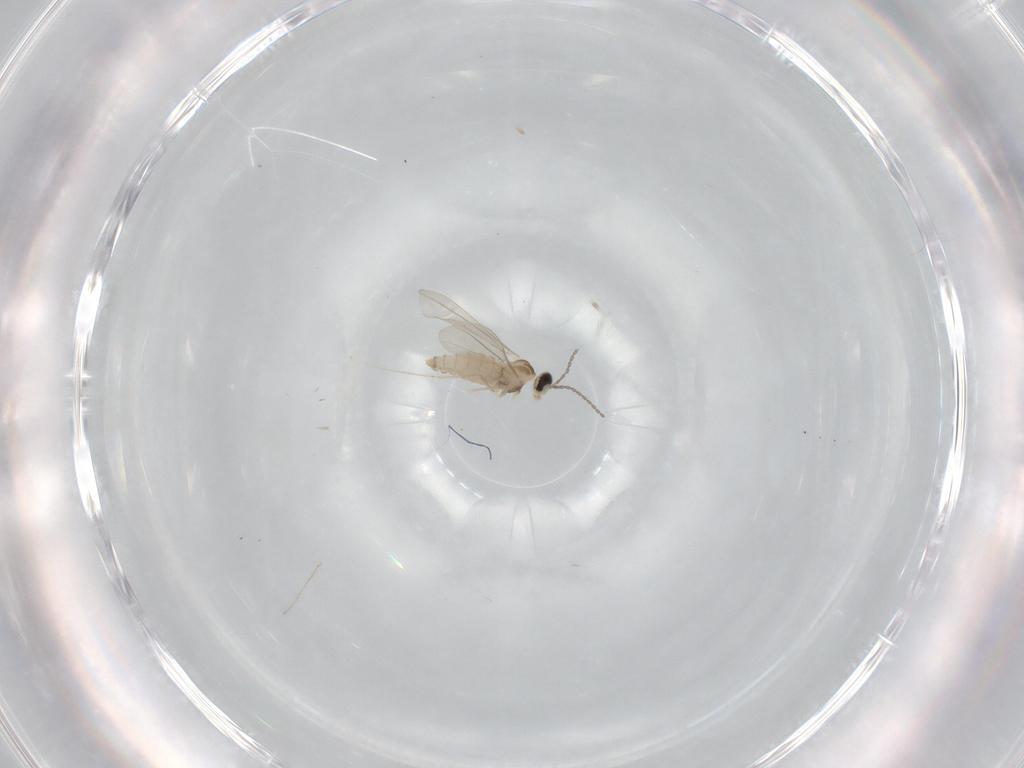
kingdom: Animalia
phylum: Arthropoda
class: Insecta
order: Diptera
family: Cecidomyiidae
